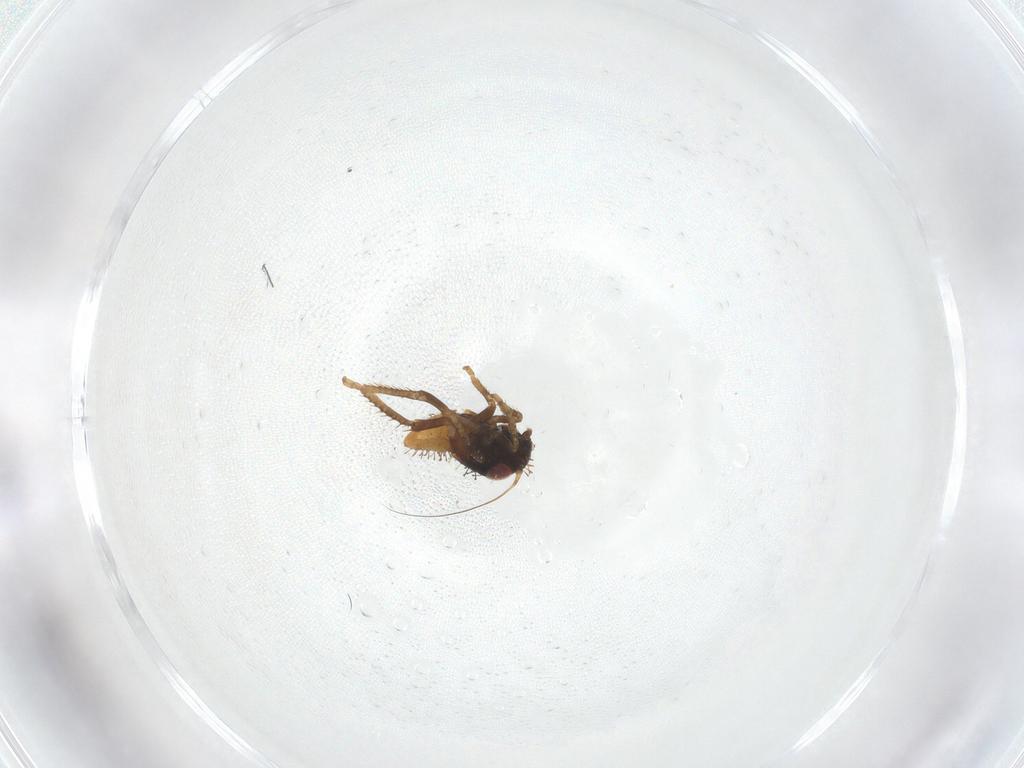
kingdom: Animalia
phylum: Arthropoda
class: Insecta
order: Hemiptera
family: Cicadellidae
